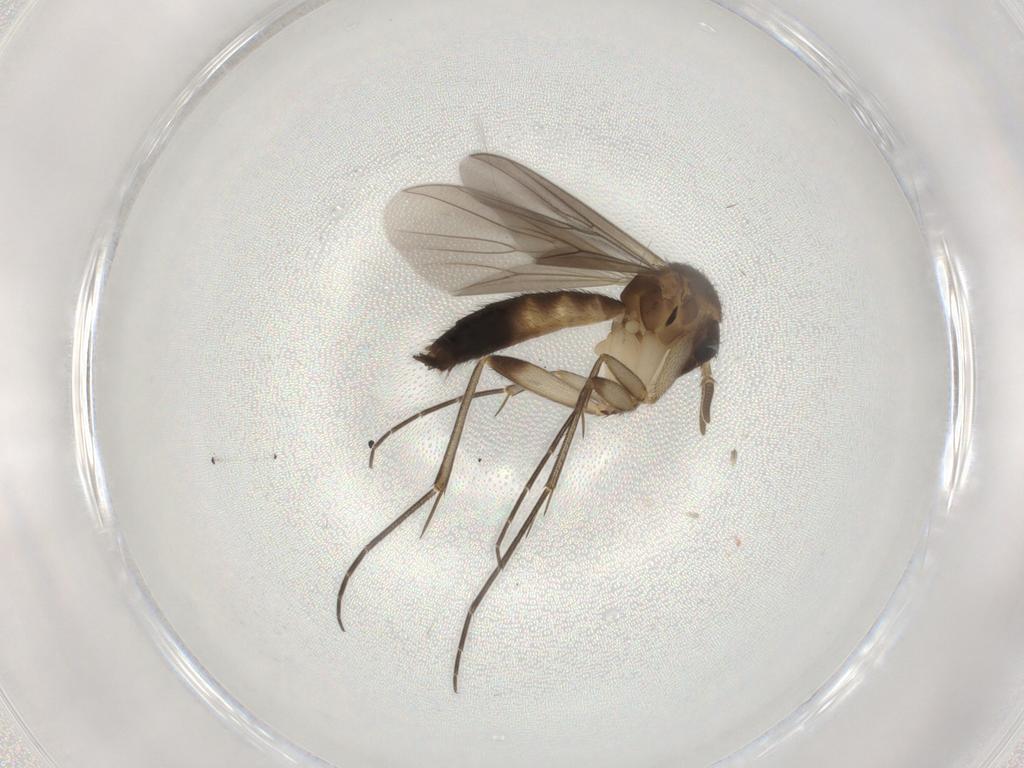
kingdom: Animalia
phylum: Arthropoda
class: Insecta
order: Diptera
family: Mycetophilidae
